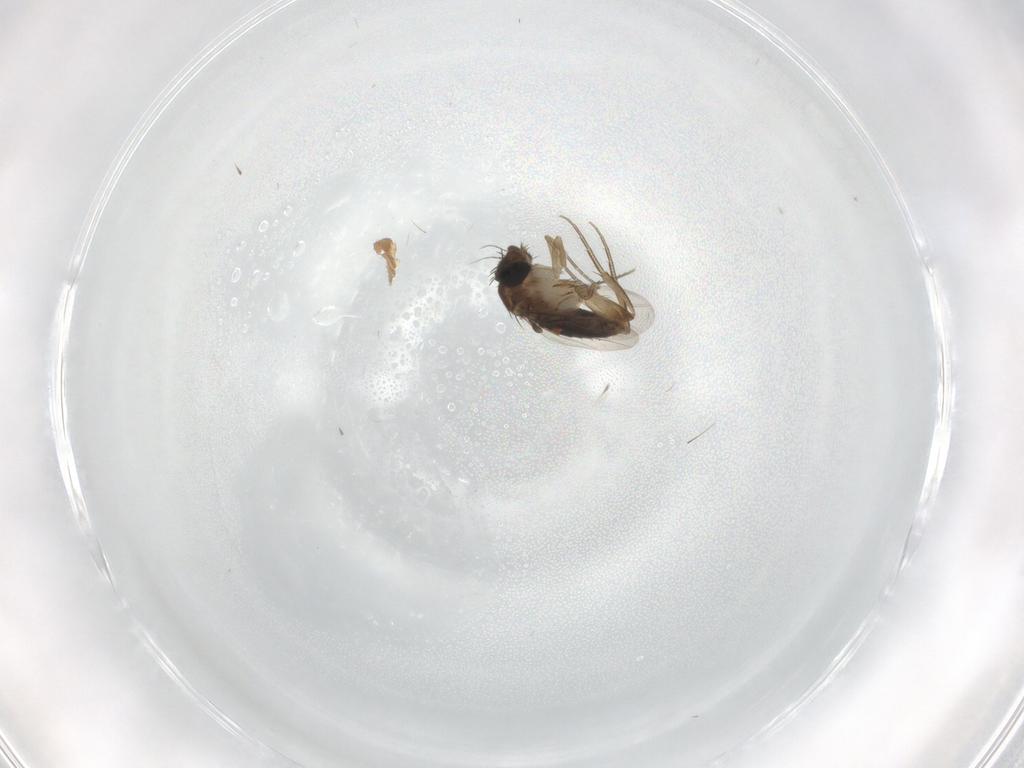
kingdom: Animalia
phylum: Arthropoda
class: Insecta
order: Diptera
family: Phoridae
